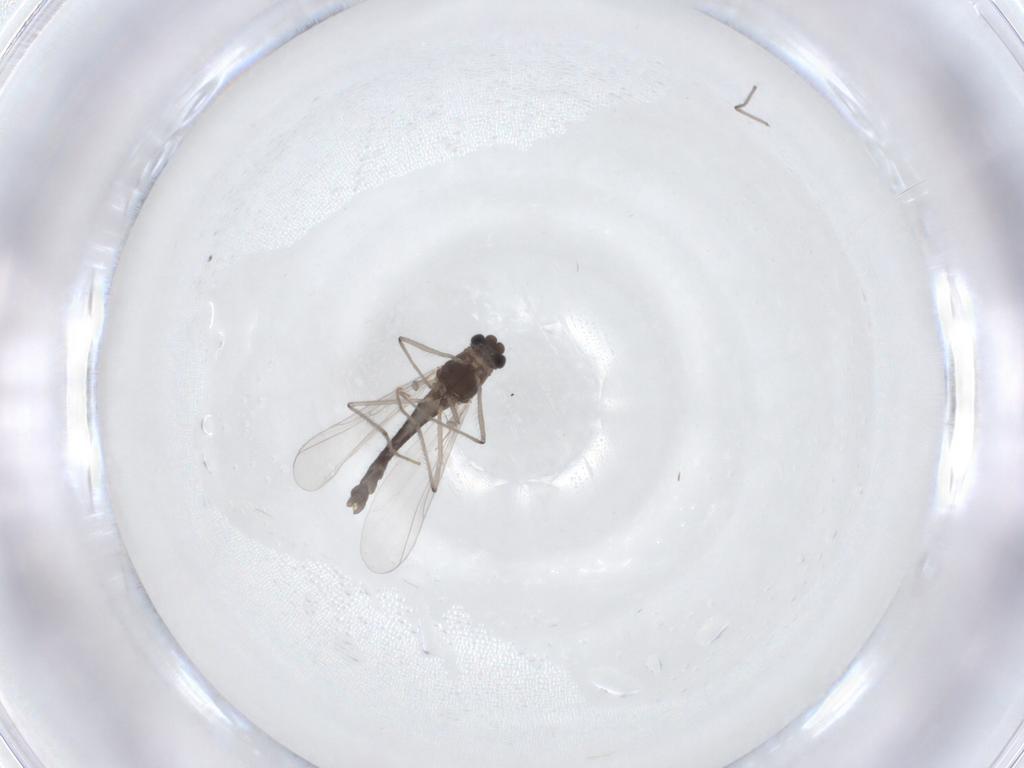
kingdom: Animalia
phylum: Arthropoda
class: Insecta
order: Diptera
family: Chironomidae
